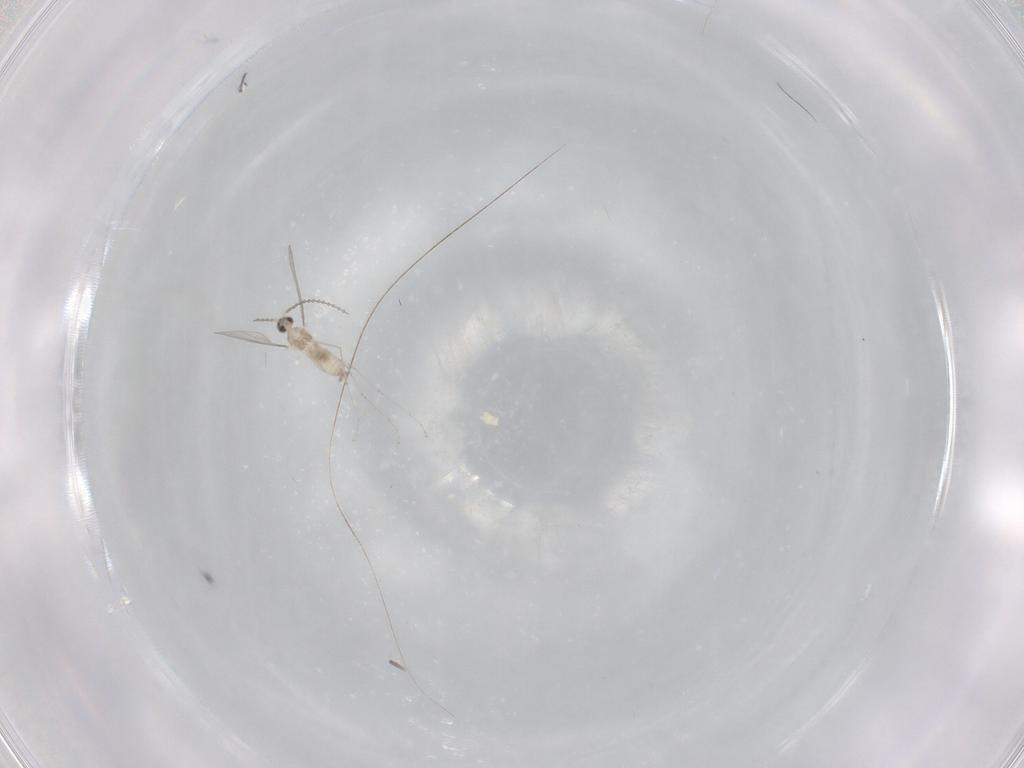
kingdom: Animalia
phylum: Arthropoda
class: Insecta
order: Diptera
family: Cecidomyiidae
